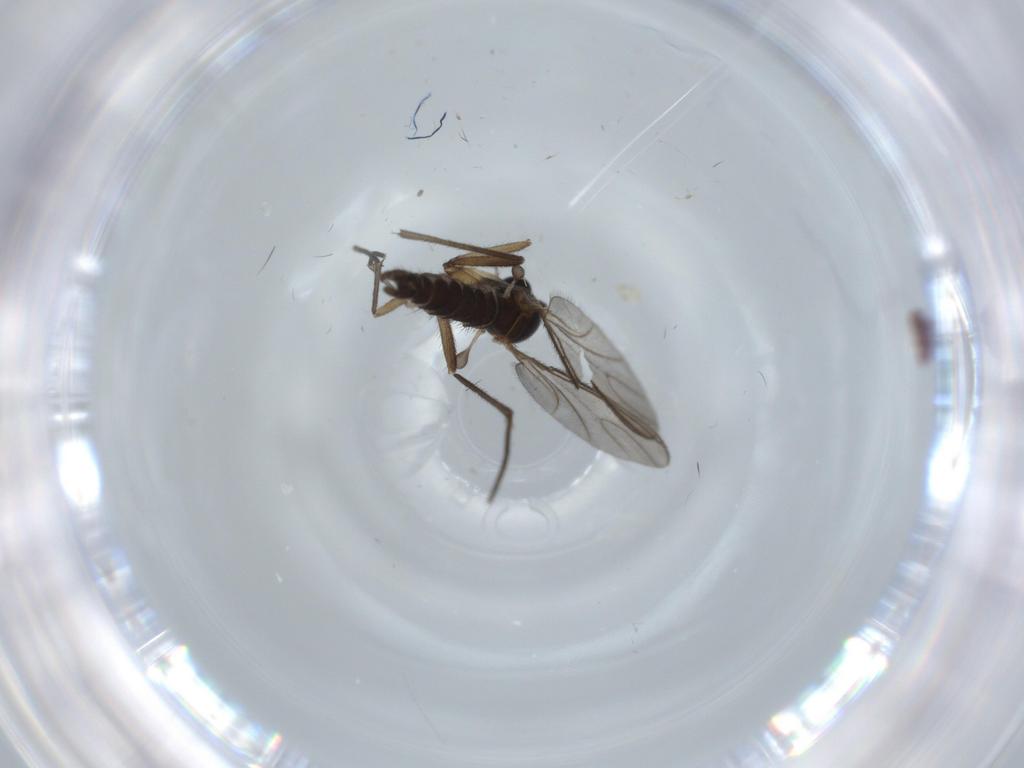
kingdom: Animalia
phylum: Arthropoda
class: Insecta
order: Diptera
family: Sciaridae
